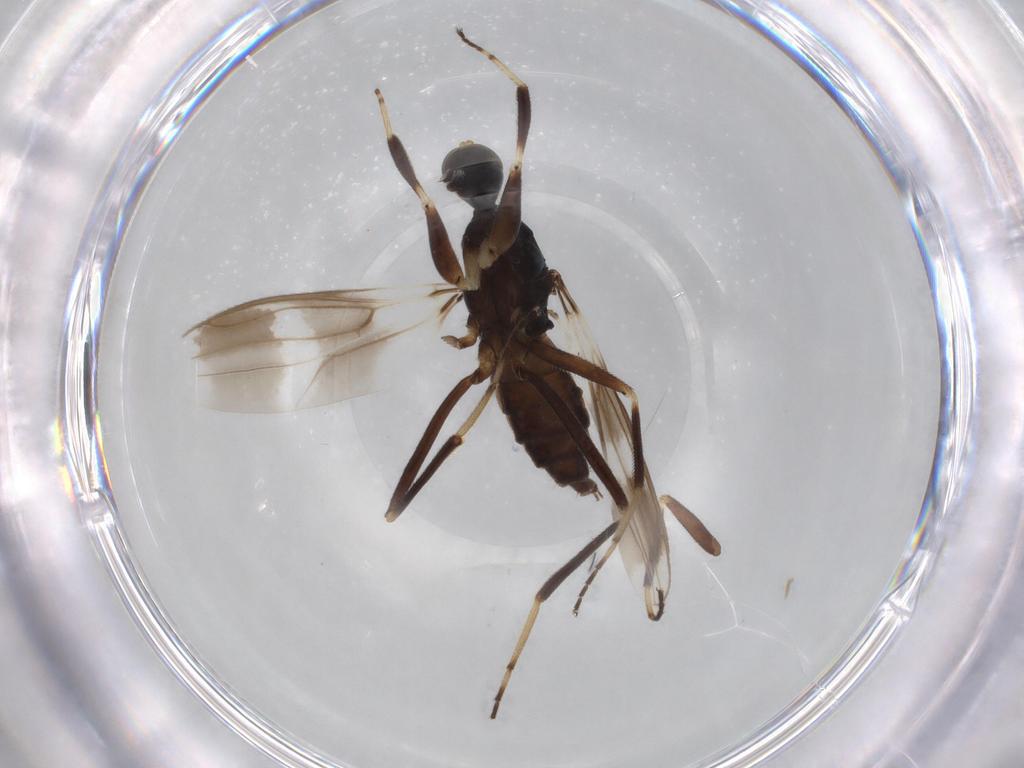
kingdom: Animalia
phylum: Arthropoda
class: Insecta
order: Diptera
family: Hybotidae
